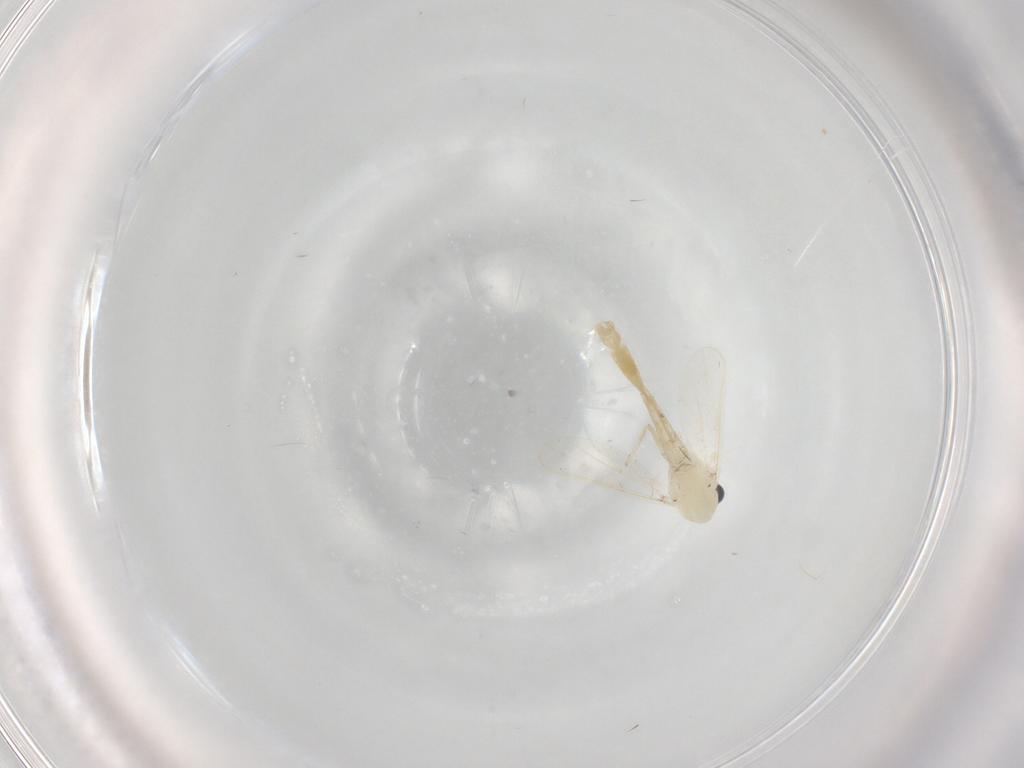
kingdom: Animalia
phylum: Arthropoda
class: Insecta
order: Diptera
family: Chironomidae
